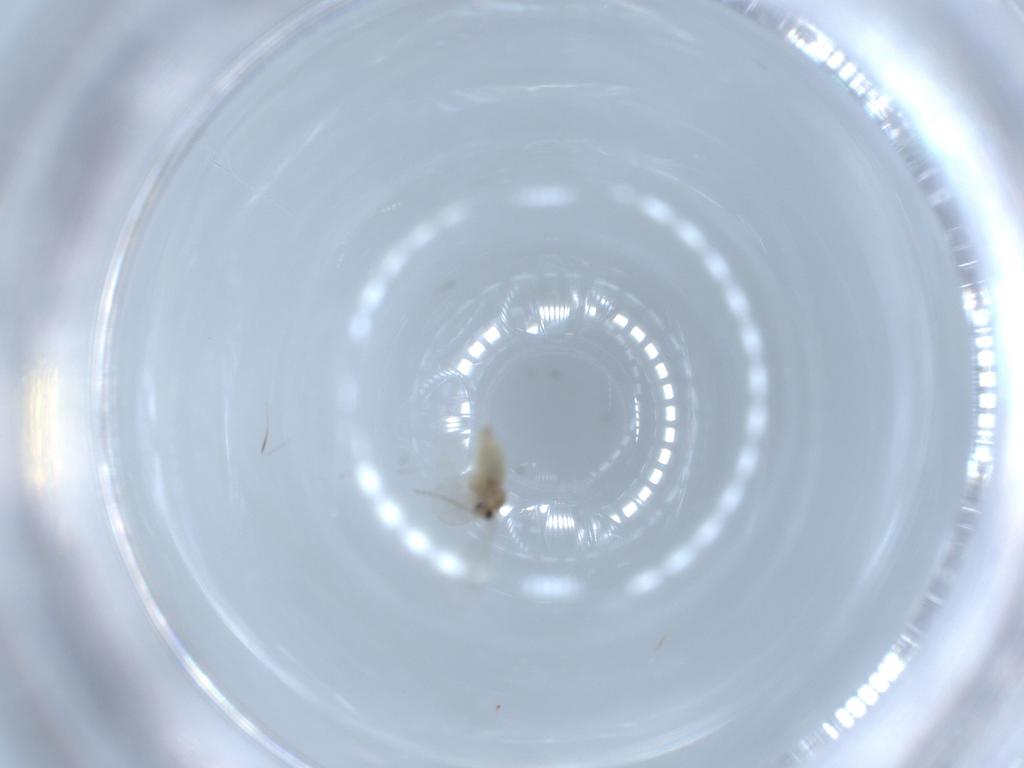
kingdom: Animalia
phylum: Arthropoda
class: Insecta
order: Diptera
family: Cecidomyiidae
